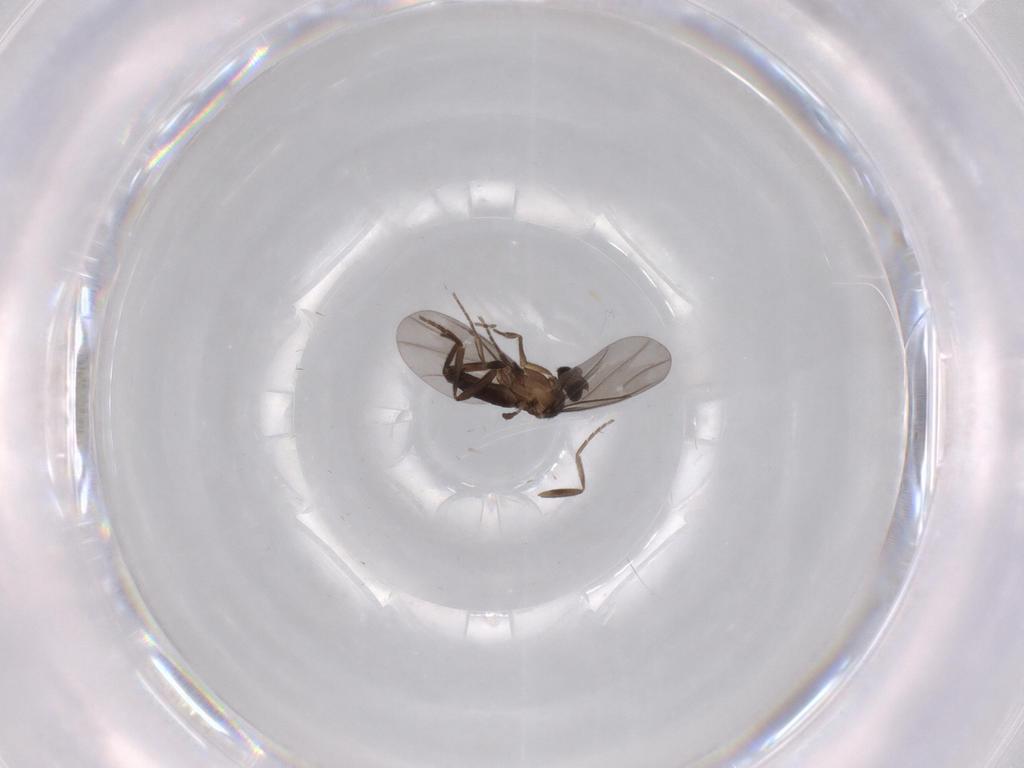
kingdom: Animalia
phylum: Arthropoda
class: Insecta
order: Diptera
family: Phoridae
